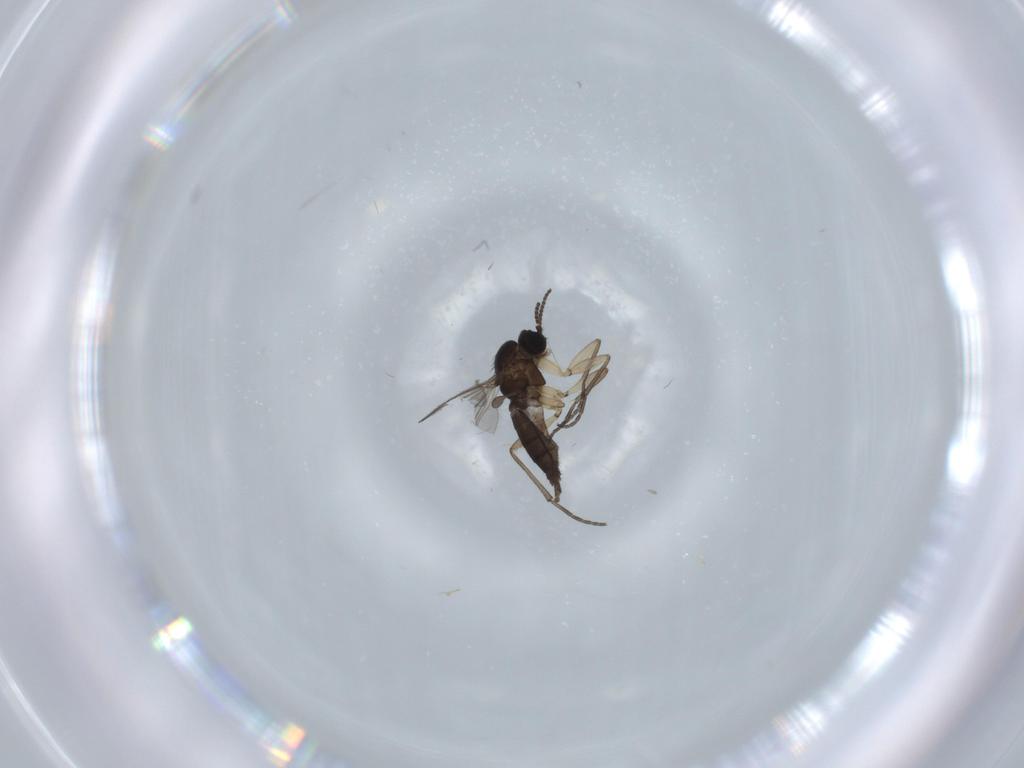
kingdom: Animalia
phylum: Arthropoda
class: Insecta
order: Diptera
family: Sciaridae
